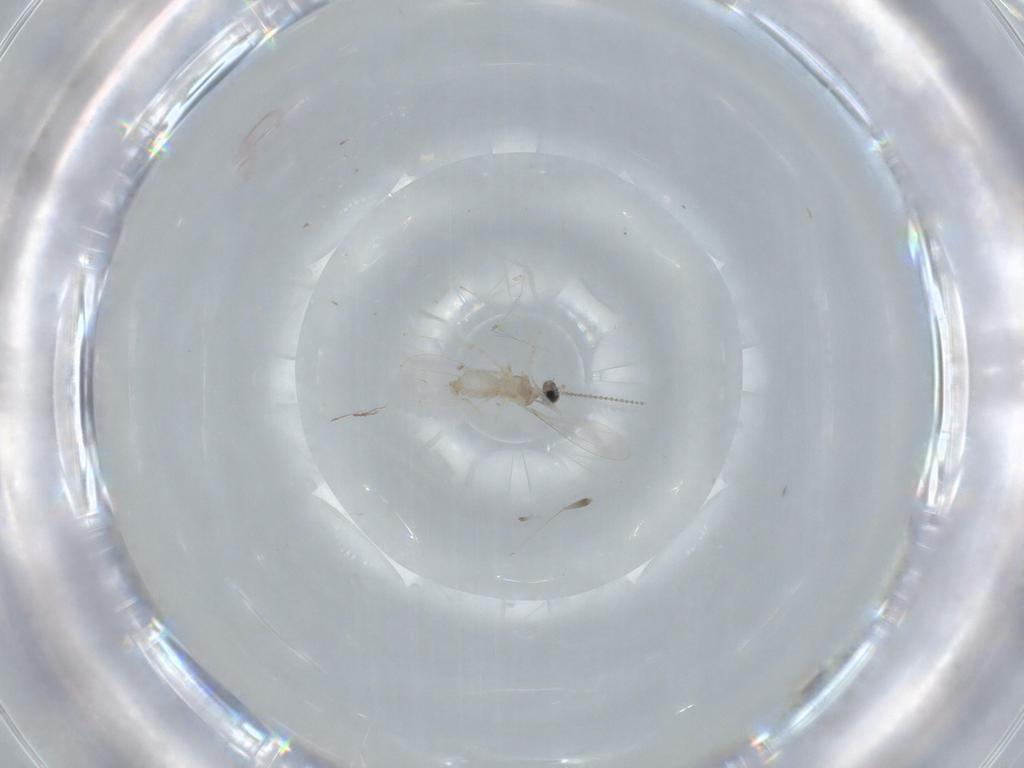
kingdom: Animalia
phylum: Arthropoda
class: Insecta
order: Diptera
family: Cecidomyiidae
